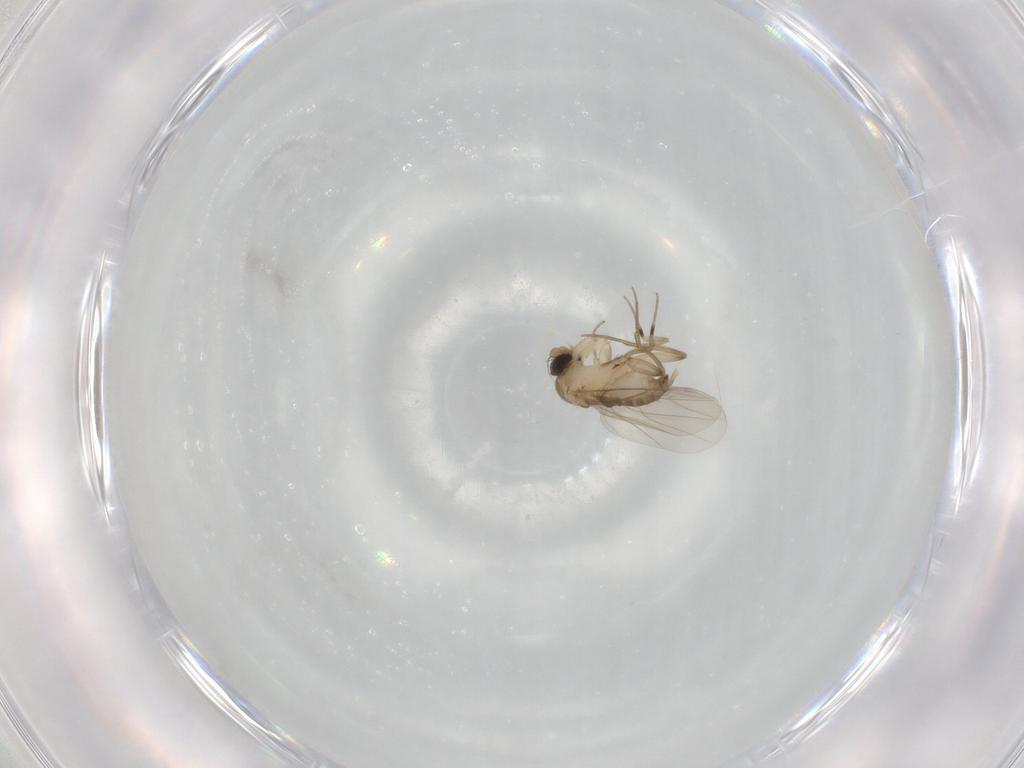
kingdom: Animalia
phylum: Arthropoda
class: Insecta
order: Diptera
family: Phoridae
